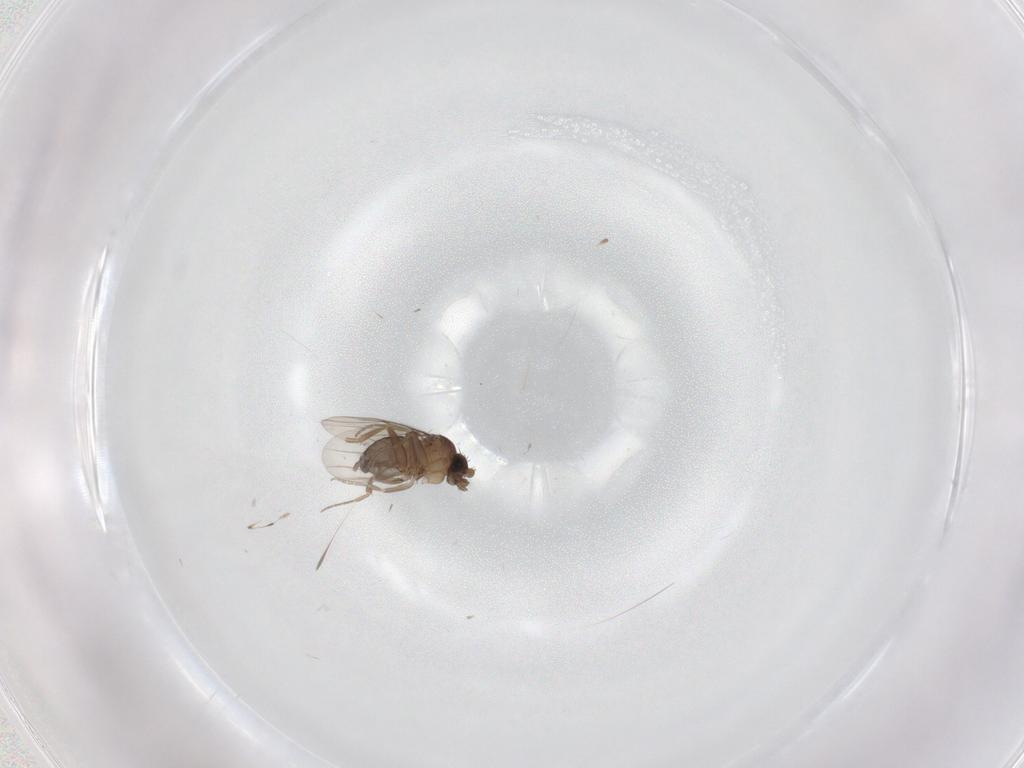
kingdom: Animalia
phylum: Arthropoda
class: Insecta
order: Diptera
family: Phoridae
